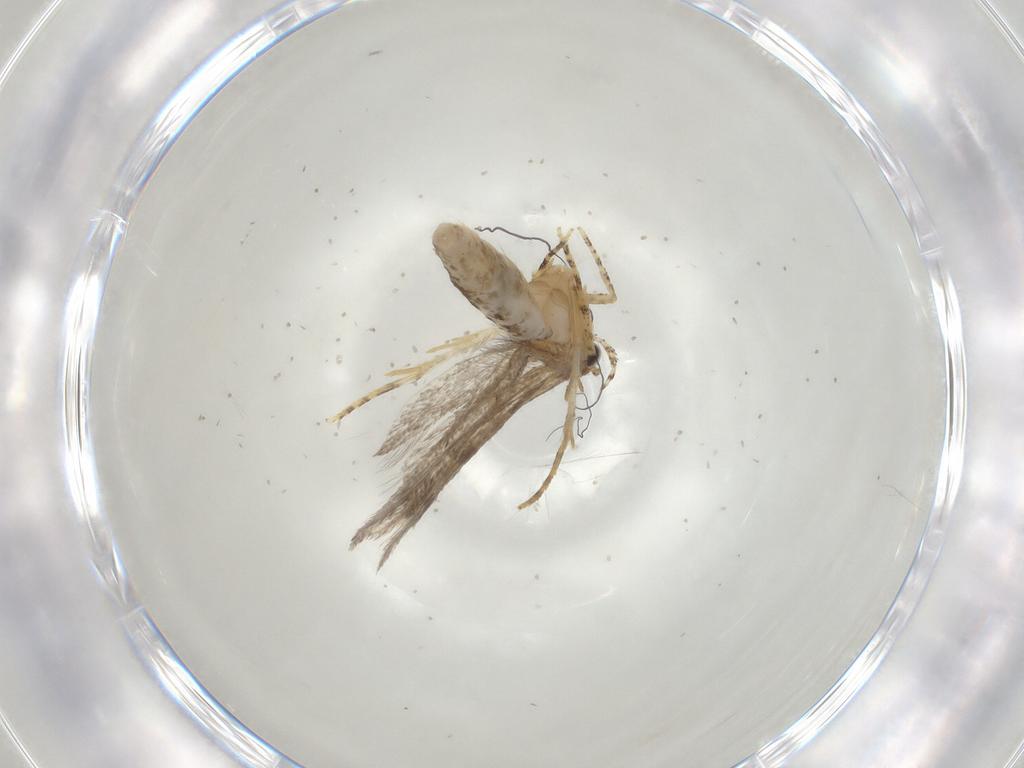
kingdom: Animalia
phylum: Arthropoda
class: Insecta
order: Lepidoptera
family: Gelechiidae
